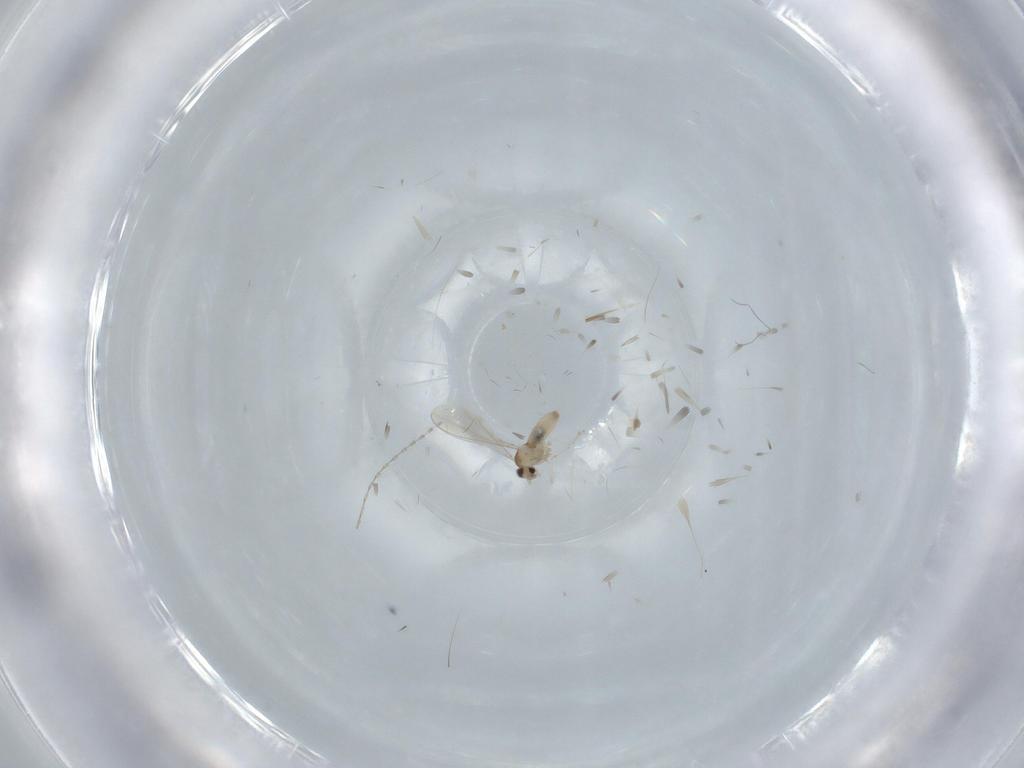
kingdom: Animalia
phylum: Arthropoda
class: Insecta
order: Diptera
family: Cecidomyiidae
